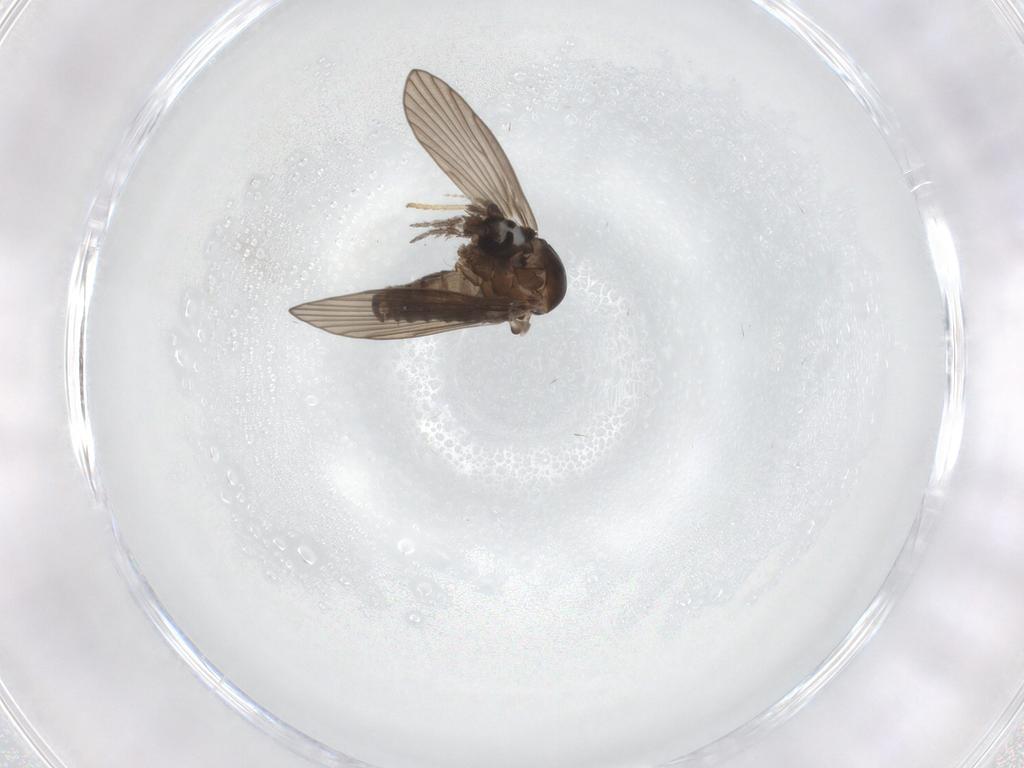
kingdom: Animalia
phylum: Arthropoda
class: Insecta
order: Diptera
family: Psychodidae
